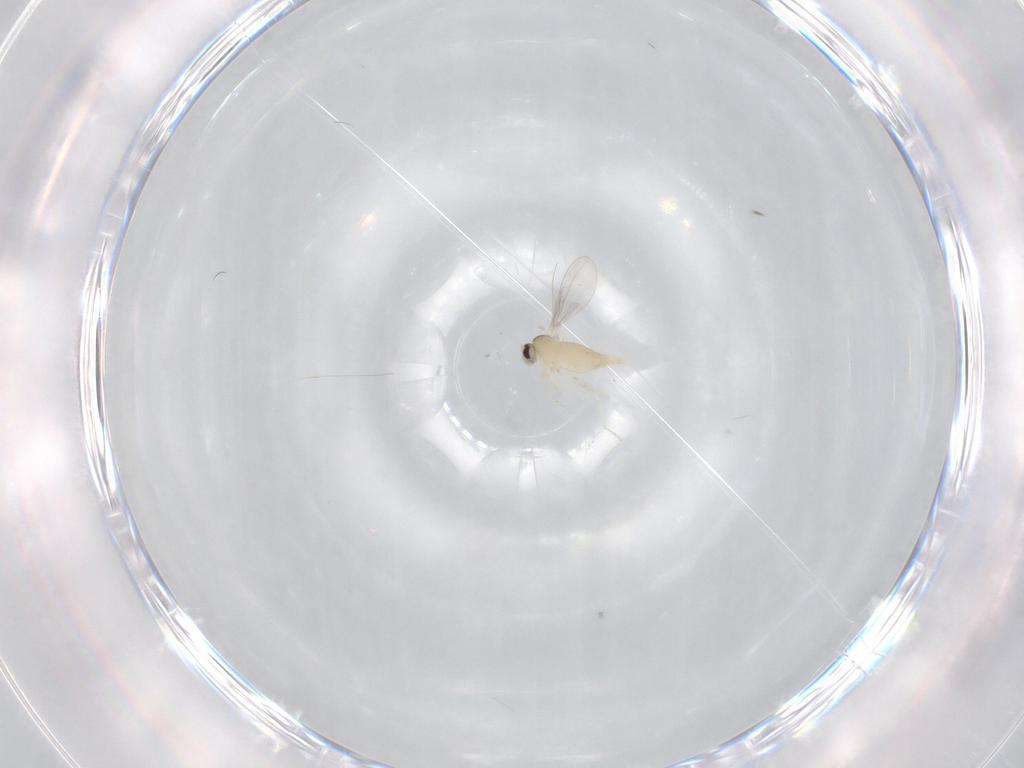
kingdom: Animalia
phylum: Arthropoda
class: Insecta
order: Diptera
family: Cecidomyiidae
